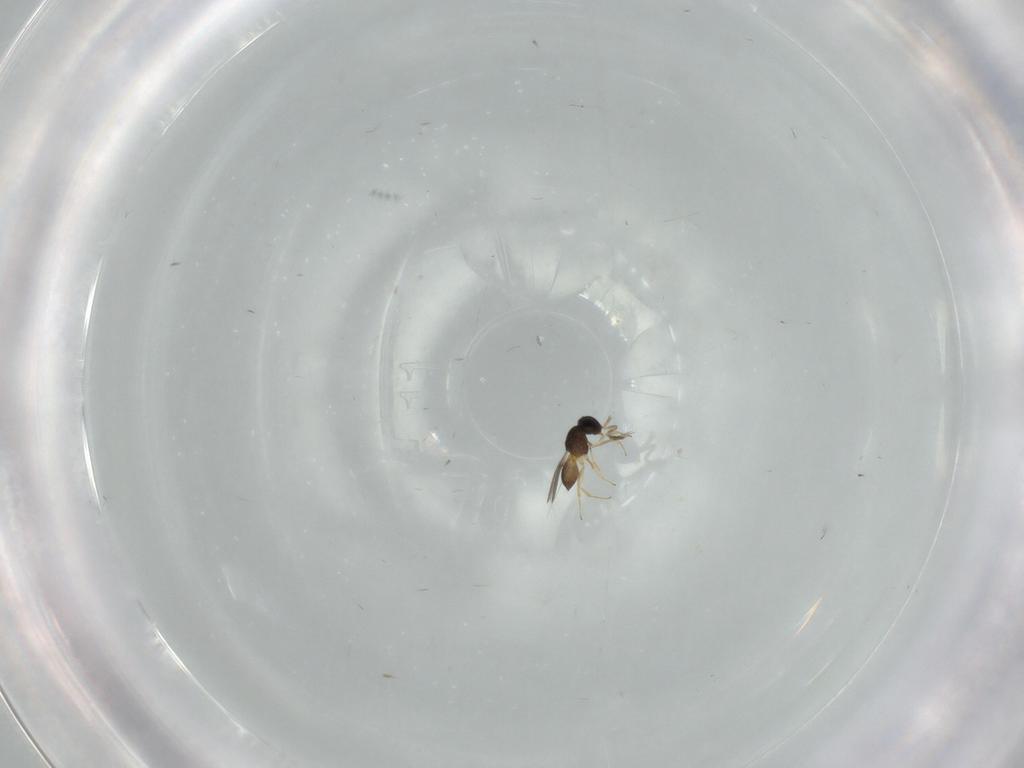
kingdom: Animalia
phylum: Arthropoda
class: Insecta
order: Hymenoptera
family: Scelionidae
